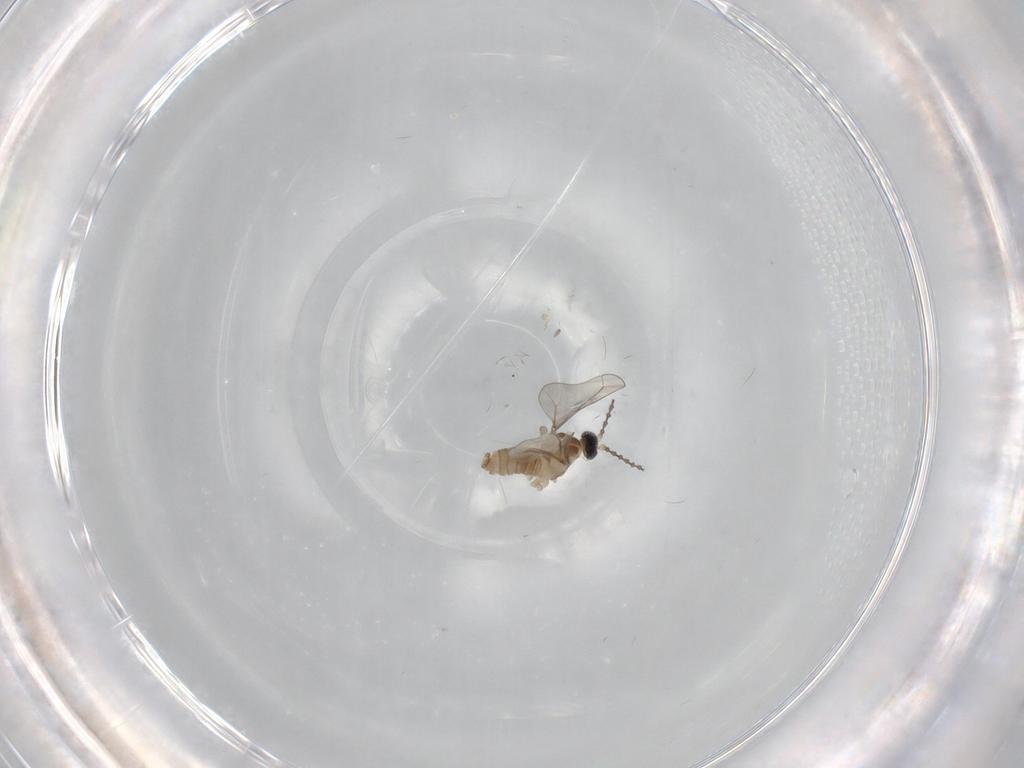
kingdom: Animalia
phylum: Arthropoda
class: Insecta
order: Diptera
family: Cecidomyiidae
